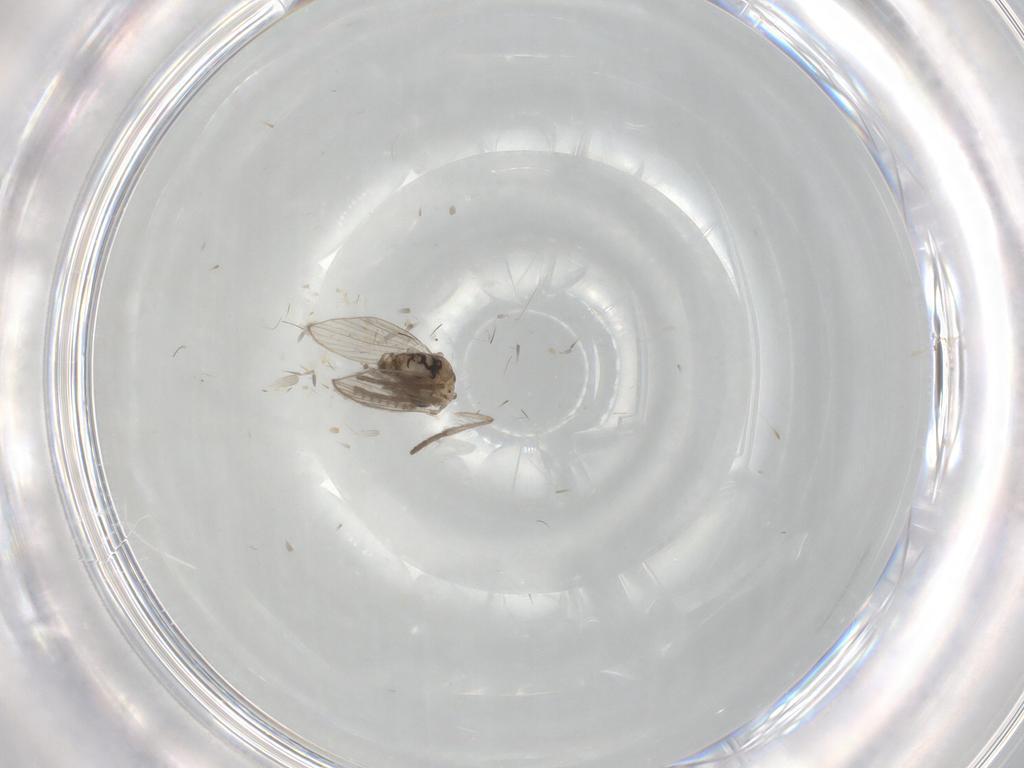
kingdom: Animalia
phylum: Arthropoda
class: Insecta
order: Diptera
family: Psychodidae
